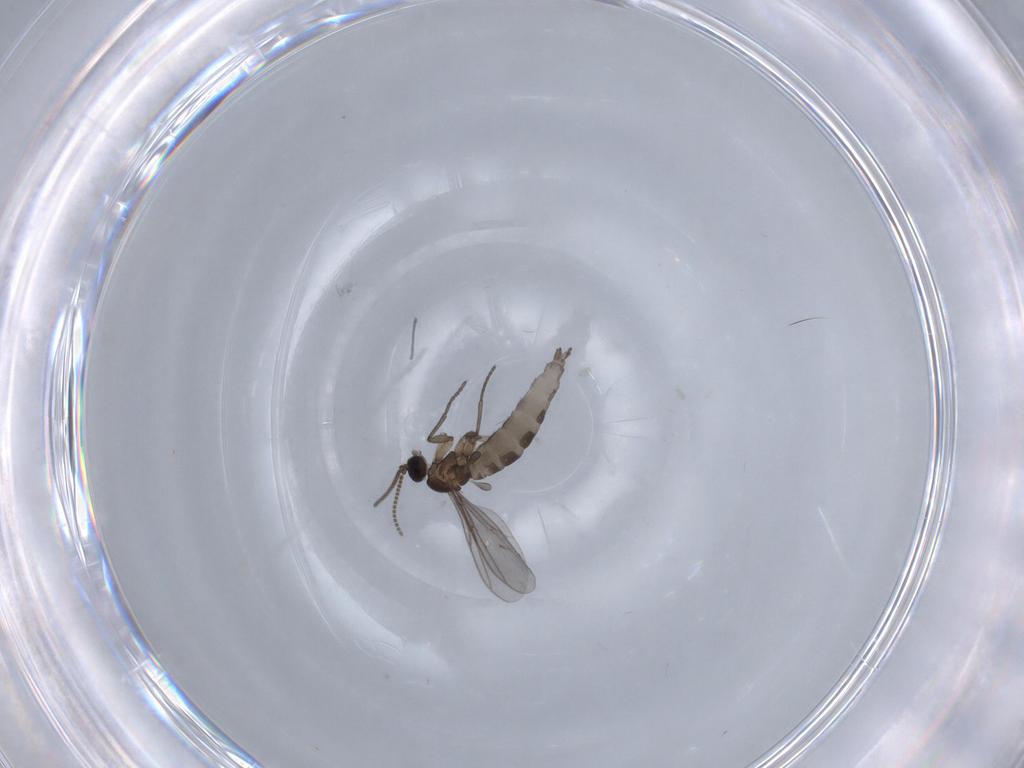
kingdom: Animalia
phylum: Arthropoda
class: Insecta
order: Diptera
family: Ceratopogonidae
